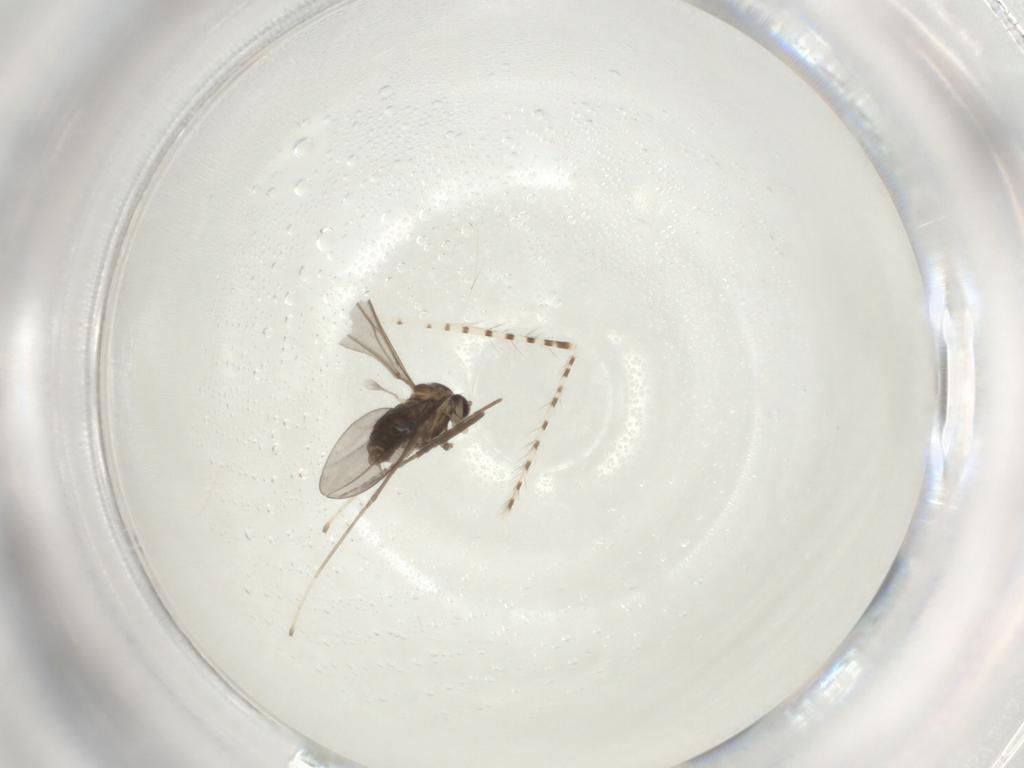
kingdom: Animalia
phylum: Arthropoda
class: Insecta
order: Diptera
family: Cecidomyiidae
